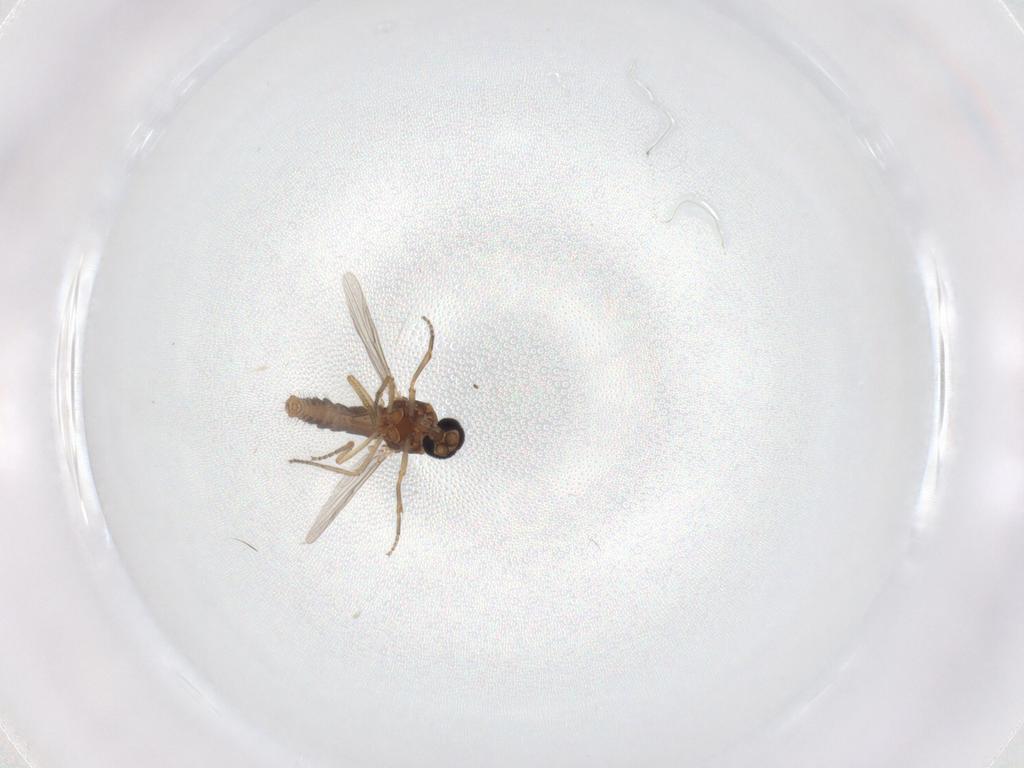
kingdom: Animalia
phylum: Arthropoda
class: Insecta
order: Diptera
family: Ceratopogonidae
